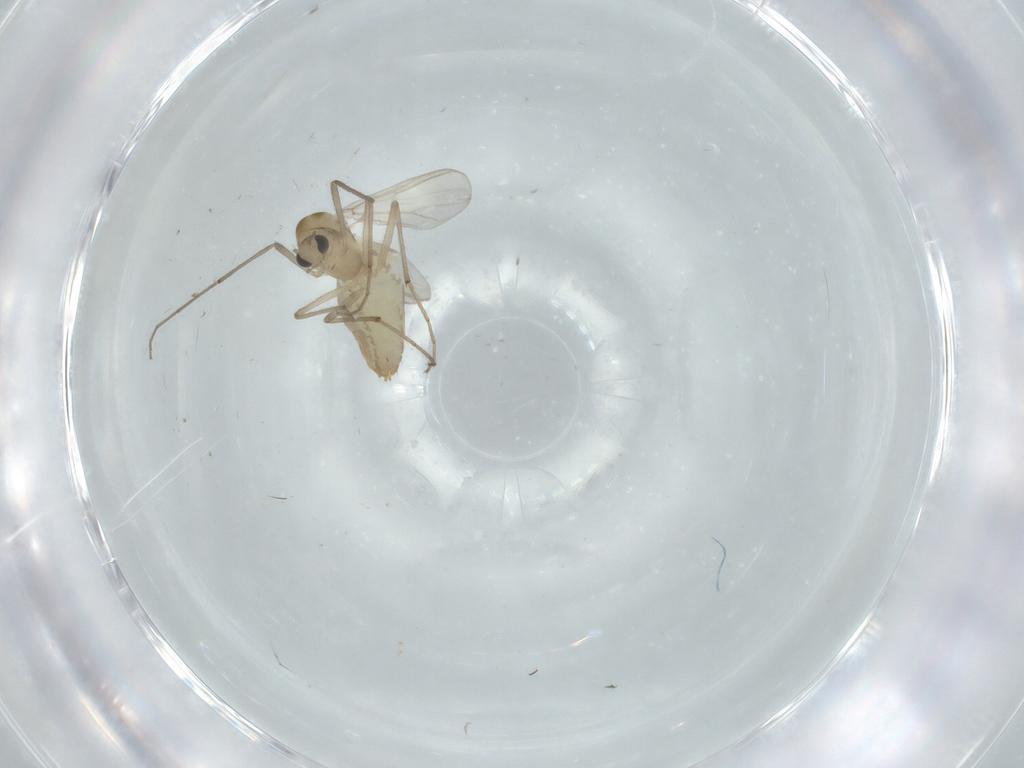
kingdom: Animalia
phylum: Arthropoda
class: Insecta
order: Diptera
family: Chironomidae
